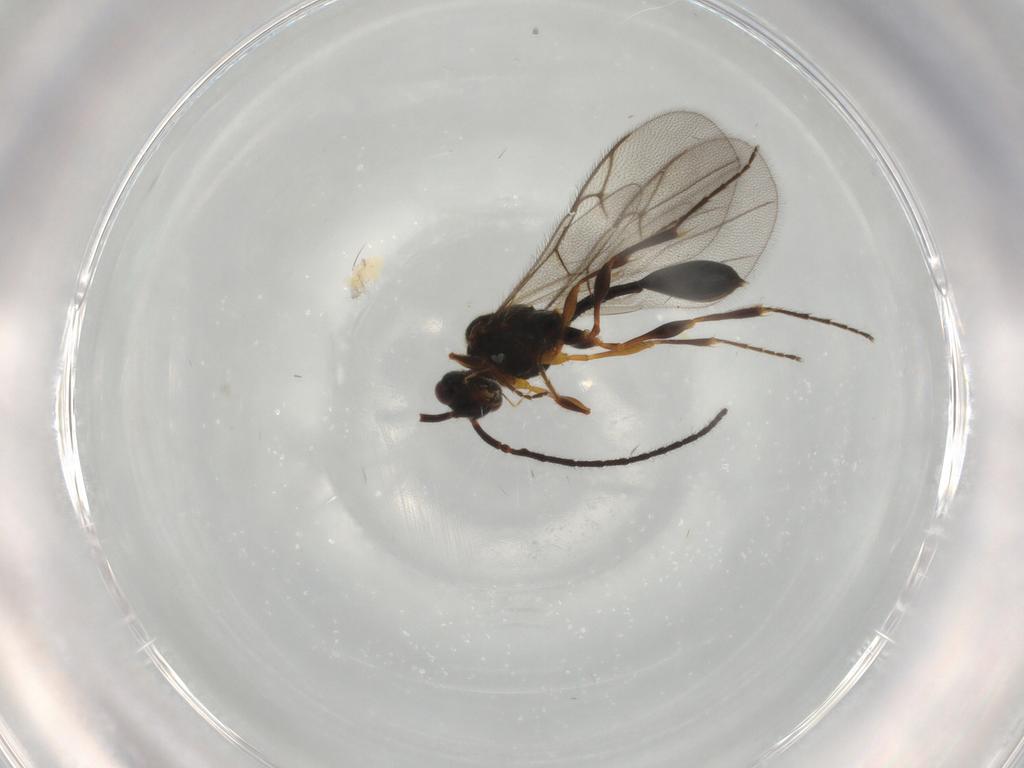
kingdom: Animalia
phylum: Arthropoda
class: Insecta
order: Hymenoptera
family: Diapriidae
